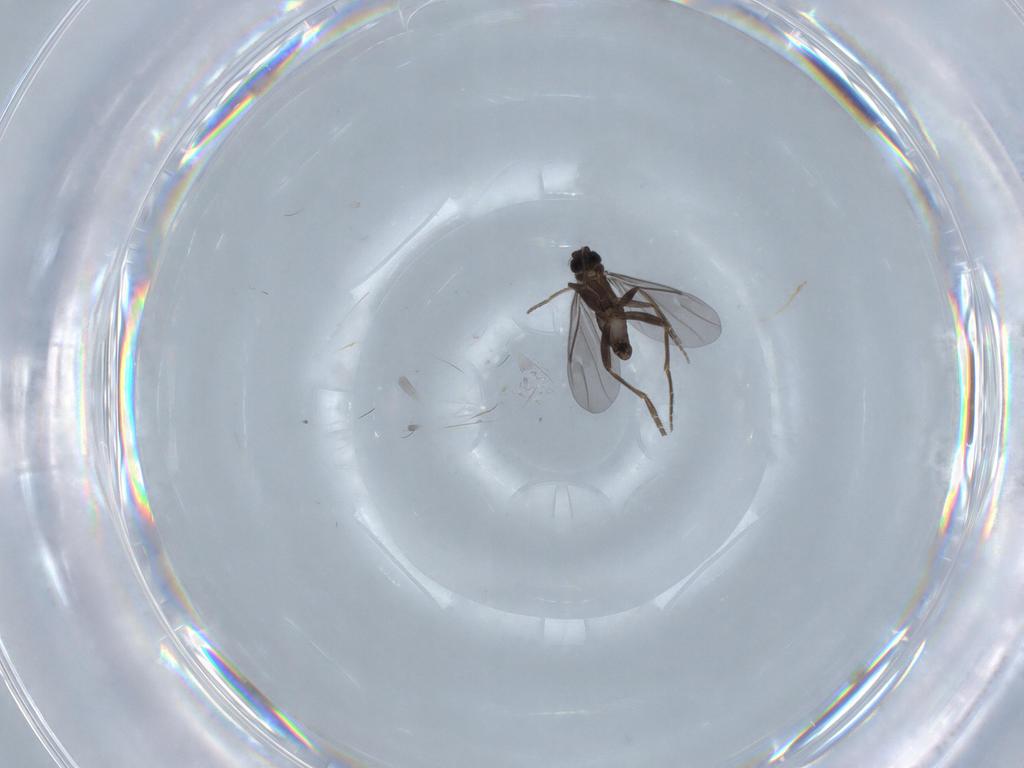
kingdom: Animalia
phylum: Arthropoda
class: Insecta
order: Diptera
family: Phoridae
